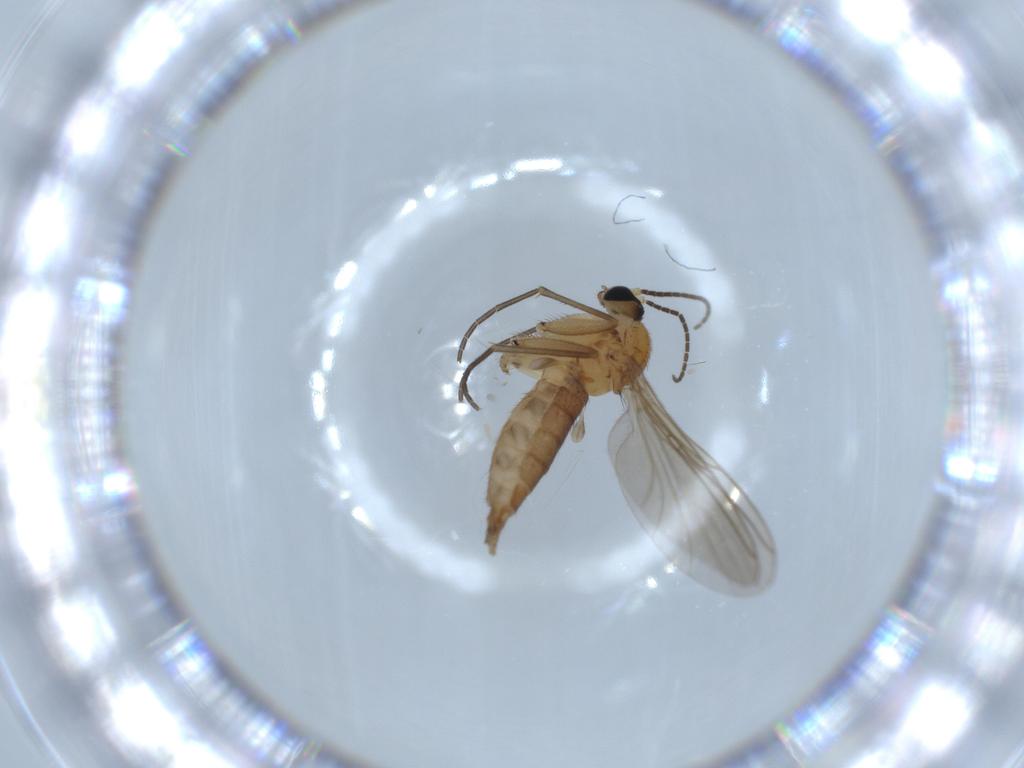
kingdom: Animalia
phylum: Arthropoda
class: Insecta
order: Diptera
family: Sciaridae
